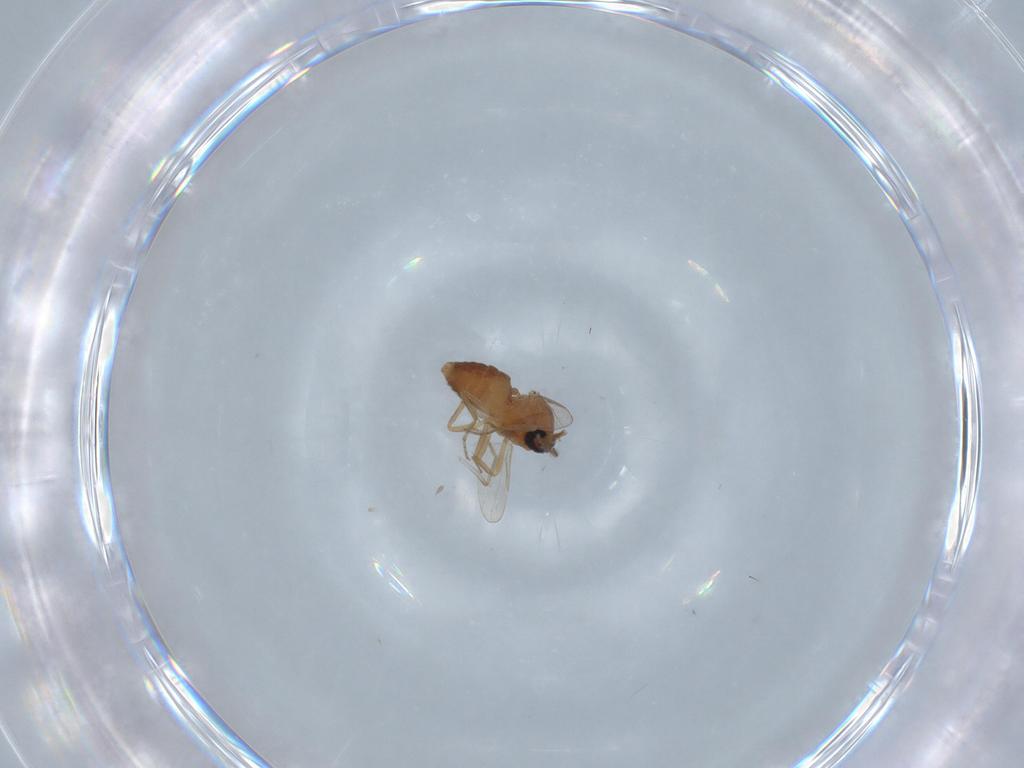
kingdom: Animalia
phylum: Arthropoda
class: Insecta
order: Diptera
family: Ceratopogonidae
